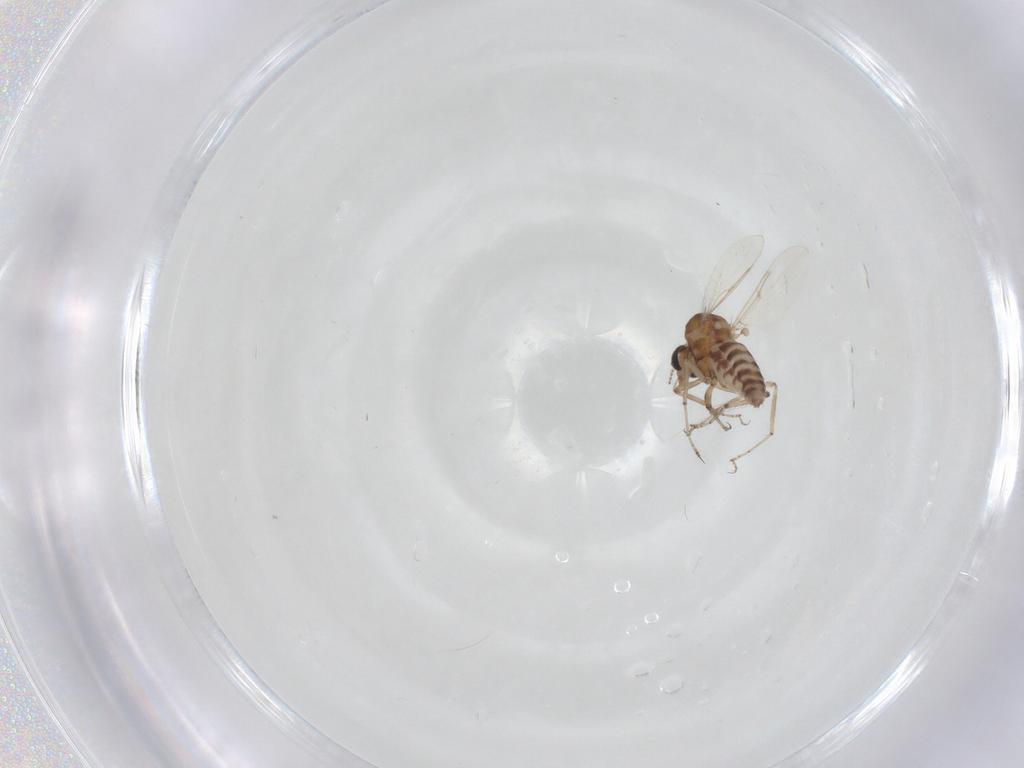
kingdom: Animalia
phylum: Arthropoda
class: Insecta
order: Diptera
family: Ceratopogonidae
